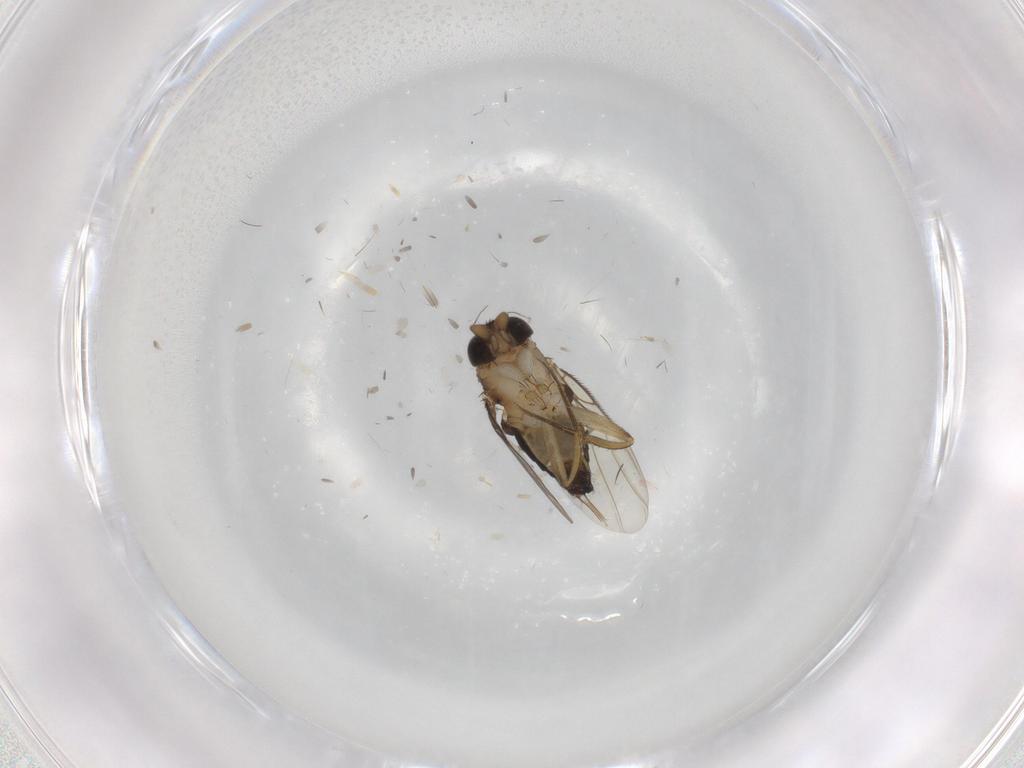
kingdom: Animalia
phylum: Arthropoda
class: Insecta
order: Diptera
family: Phoridae
